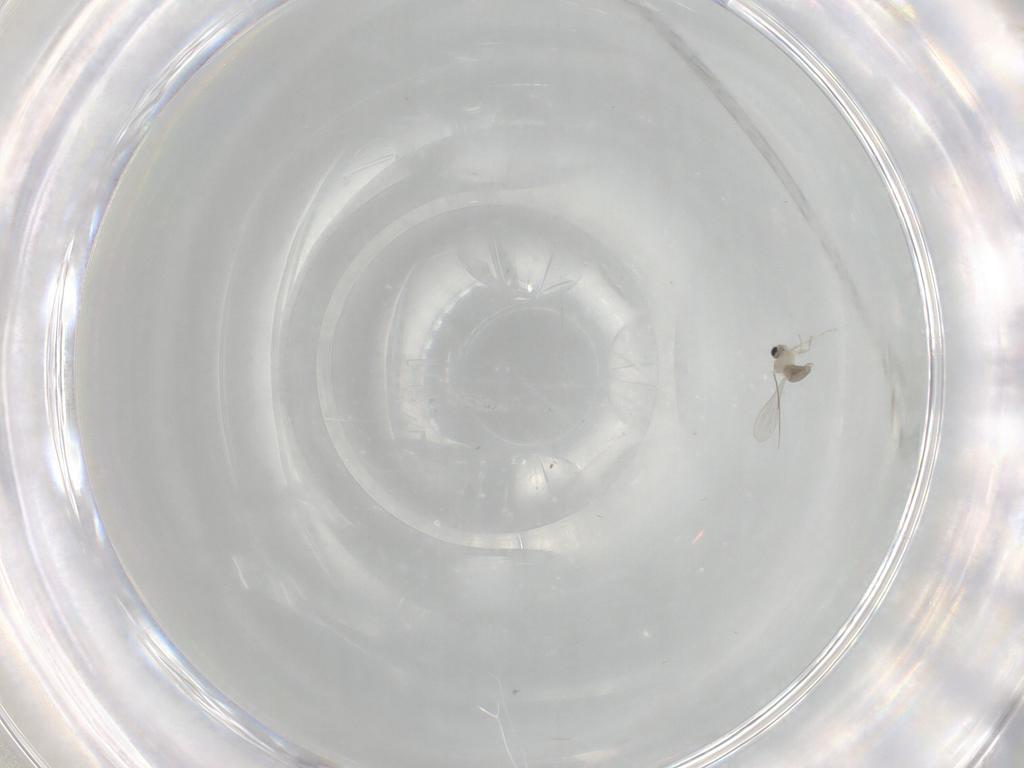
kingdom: Animalia
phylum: Arthropoda
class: Insecta
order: Diptera
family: Cecidomyiidae
